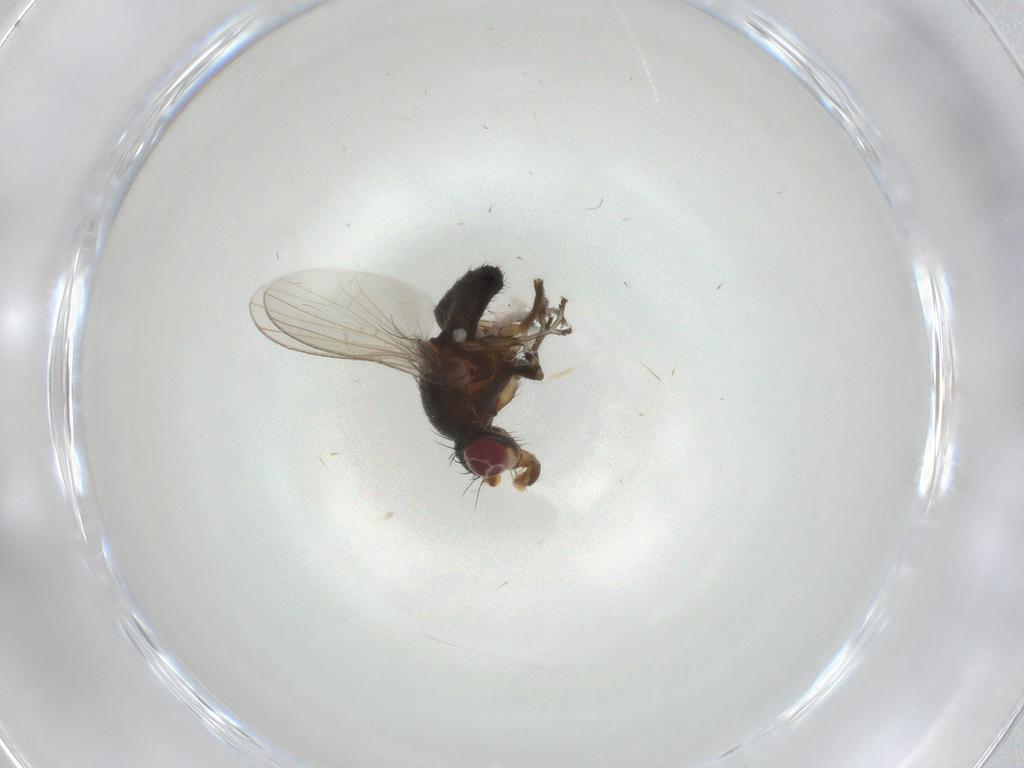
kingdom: Animalia
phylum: Arthropoda
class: Insecta
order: Diptera
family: Heleomyzidae
